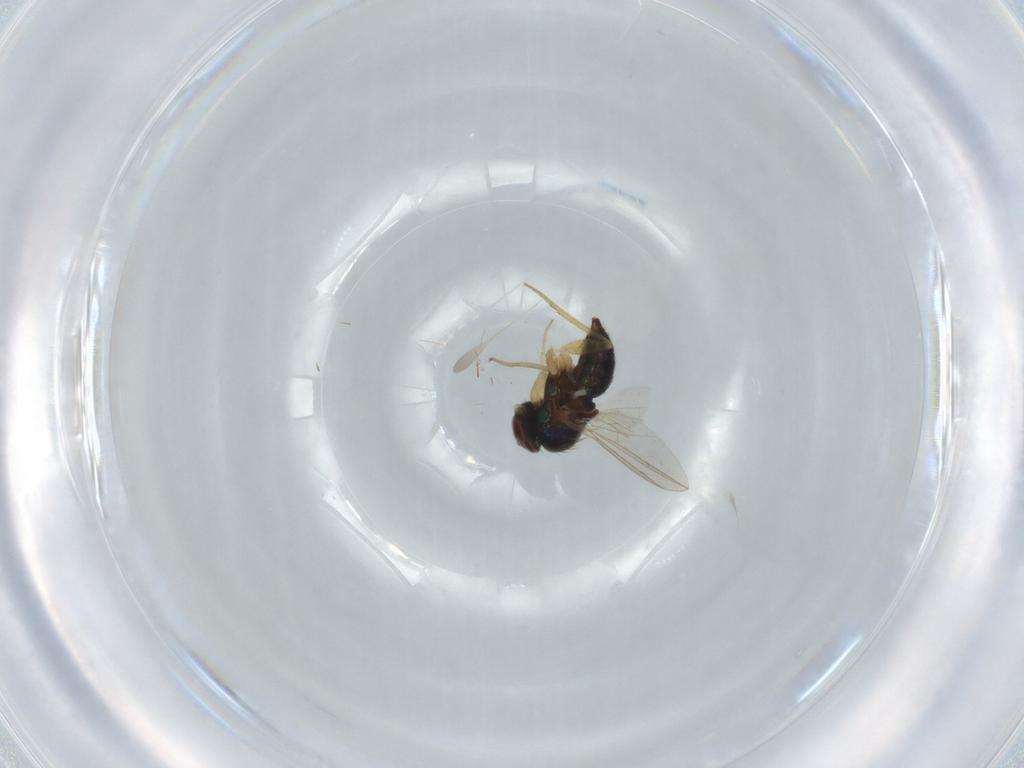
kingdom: Animalia
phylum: Arthropoda
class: Insecta
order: Diptera
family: Dolichopodidae
